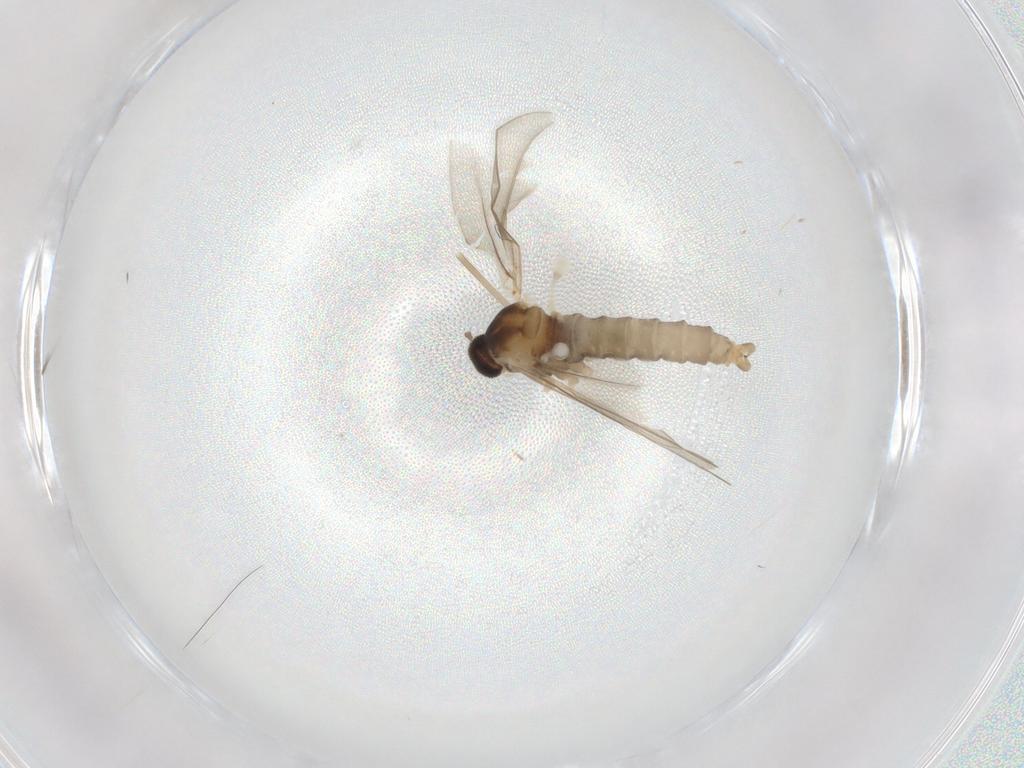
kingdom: Animalia
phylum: Arthropoda
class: Insecta
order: Diptera
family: Mycetophilidae
